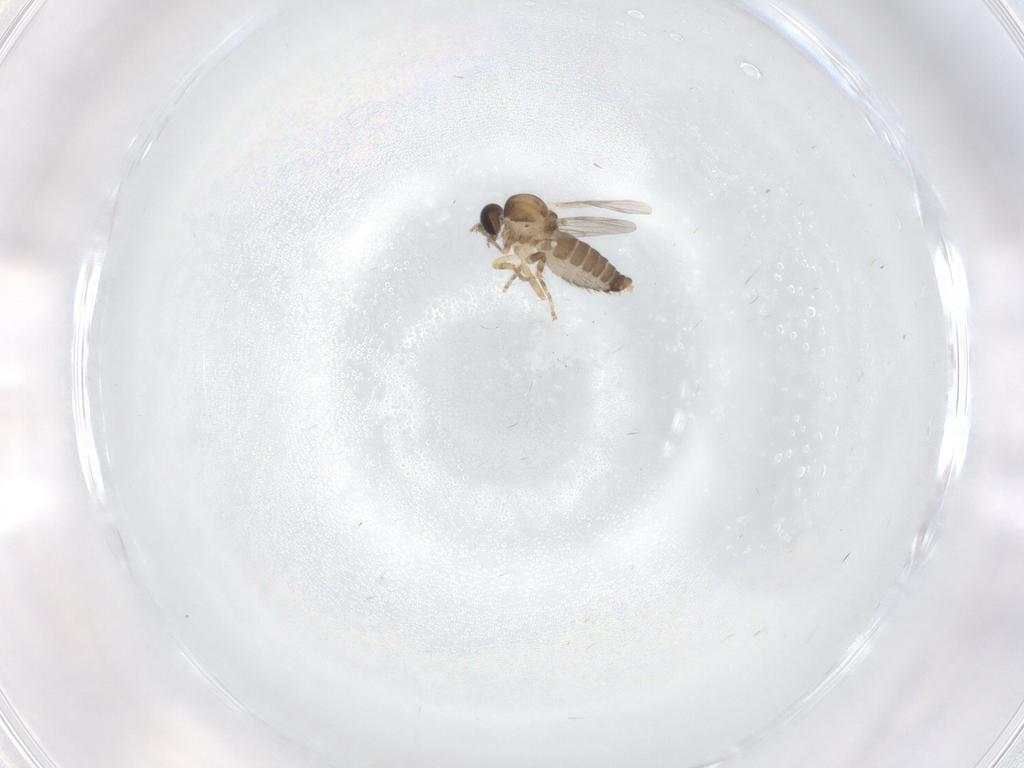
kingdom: Animalia
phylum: Arthropoda
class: Insecta
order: Diptera
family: Ceratopogonidae
